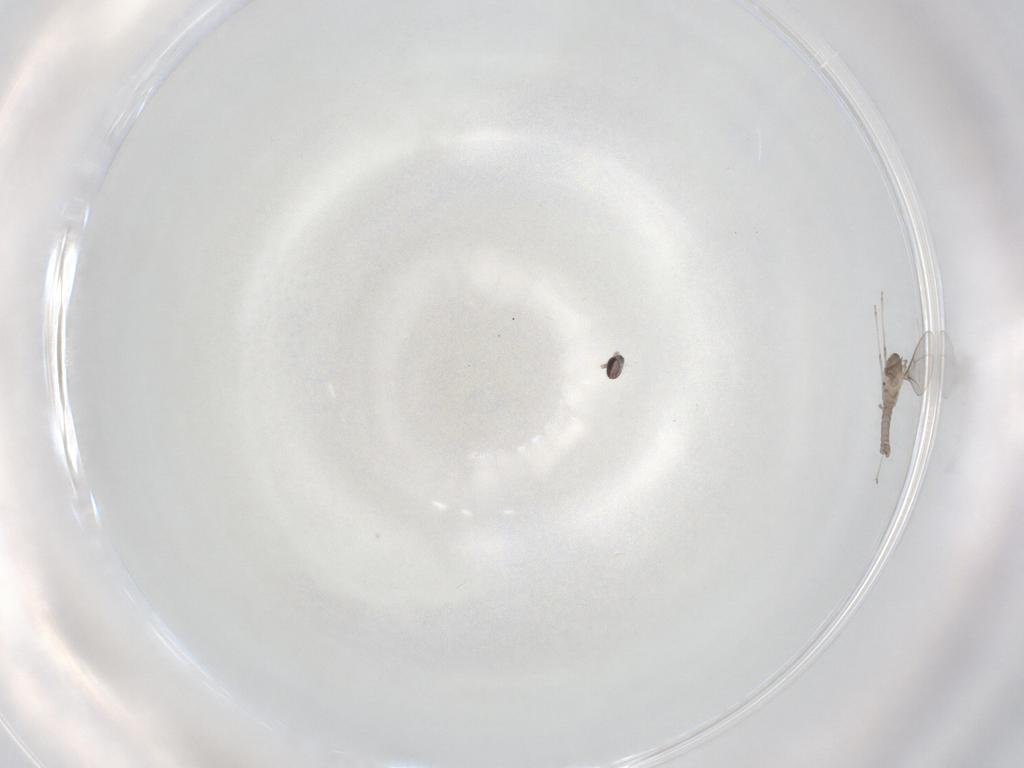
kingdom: Animalia
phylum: Arthropoda
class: Insecta
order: Diptera
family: Cecidomyiidae
